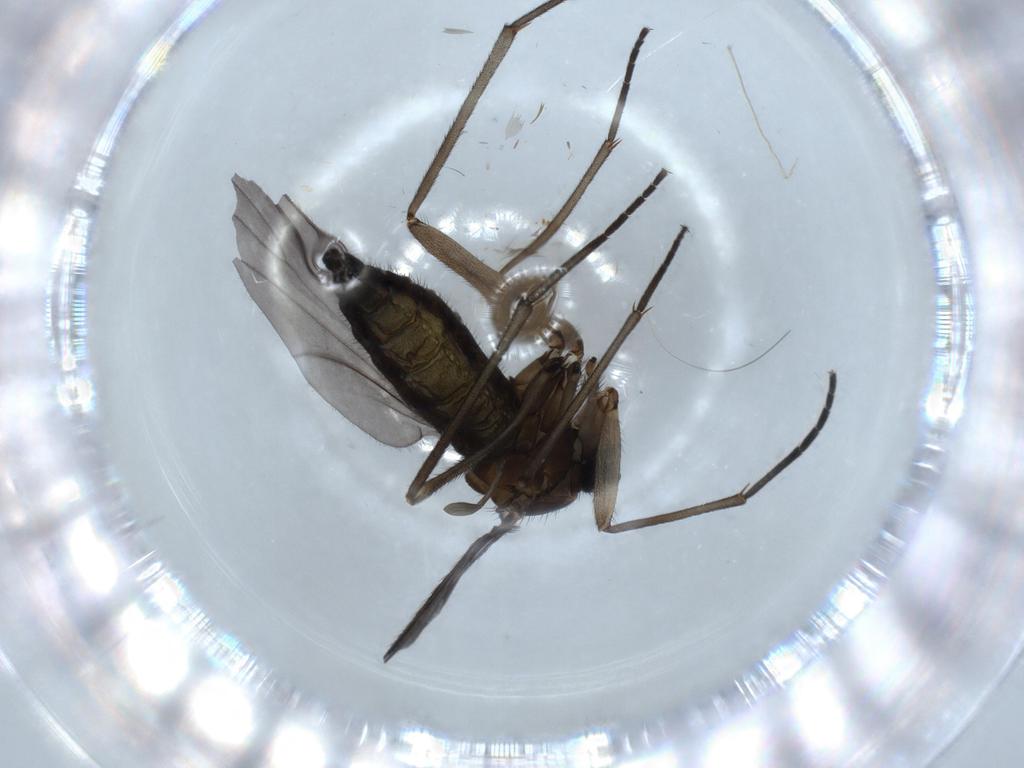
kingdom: Animalia
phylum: Arthropoda
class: Insecta
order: Diptera
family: Sciaridae
